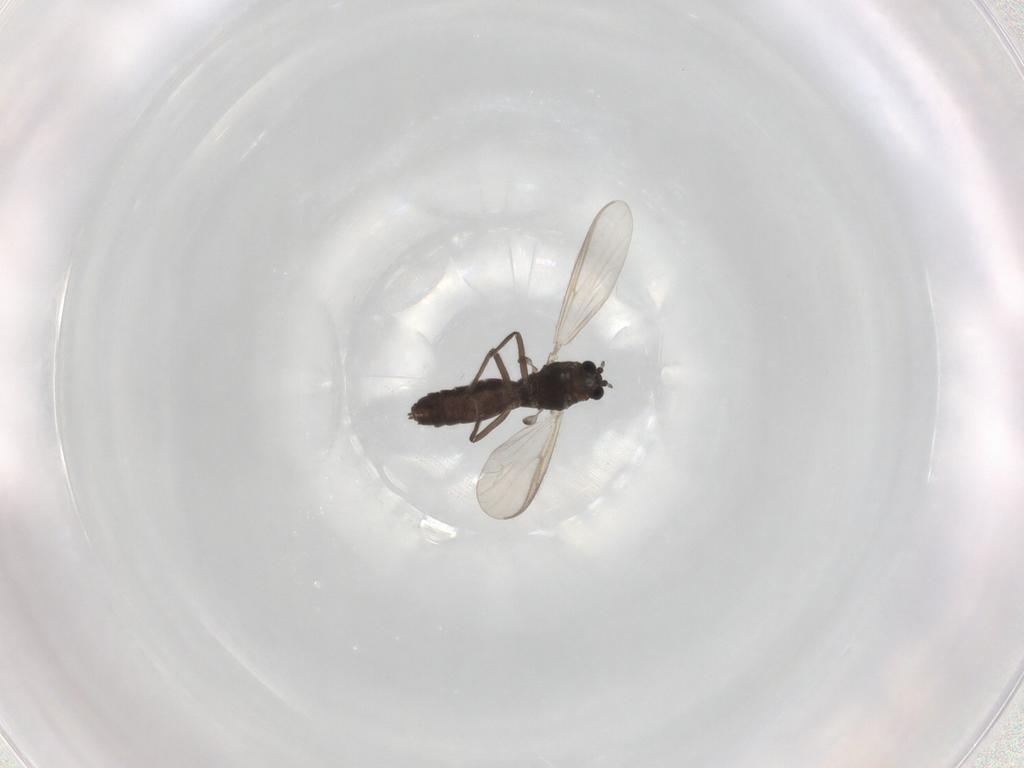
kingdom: Animalia
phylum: Arthropoda
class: Insecta
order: Diptera
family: Chironomidae
